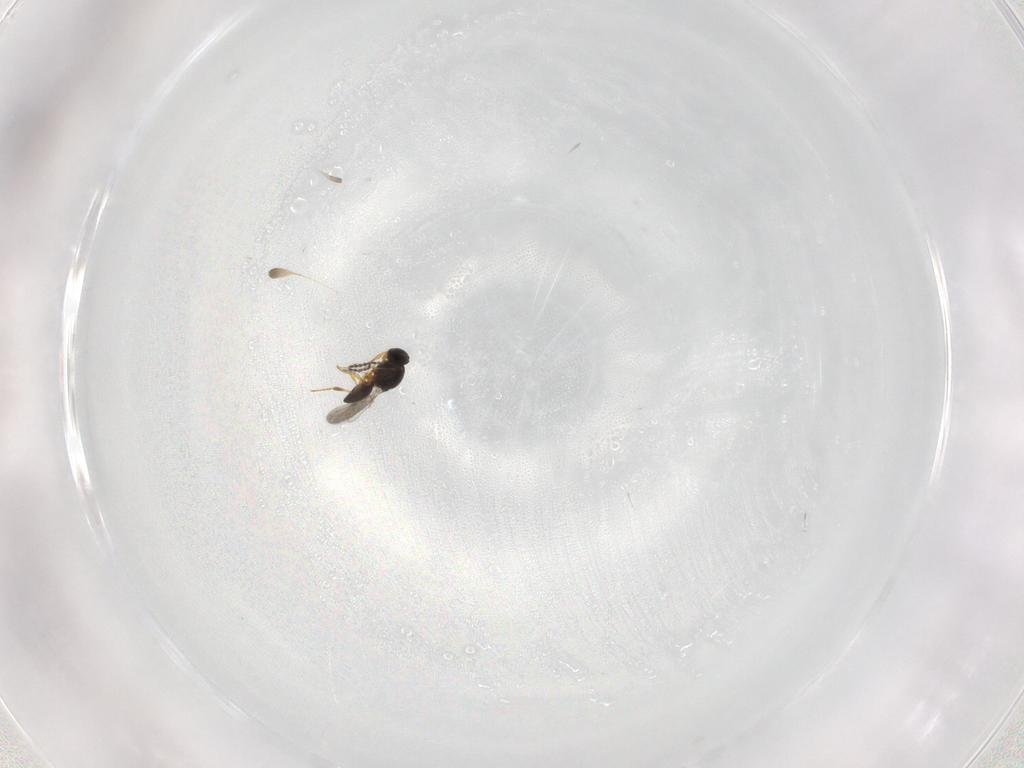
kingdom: Animalia
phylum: Arthropoda
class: Insecta
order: Hymenoptera
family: Platygastridae
